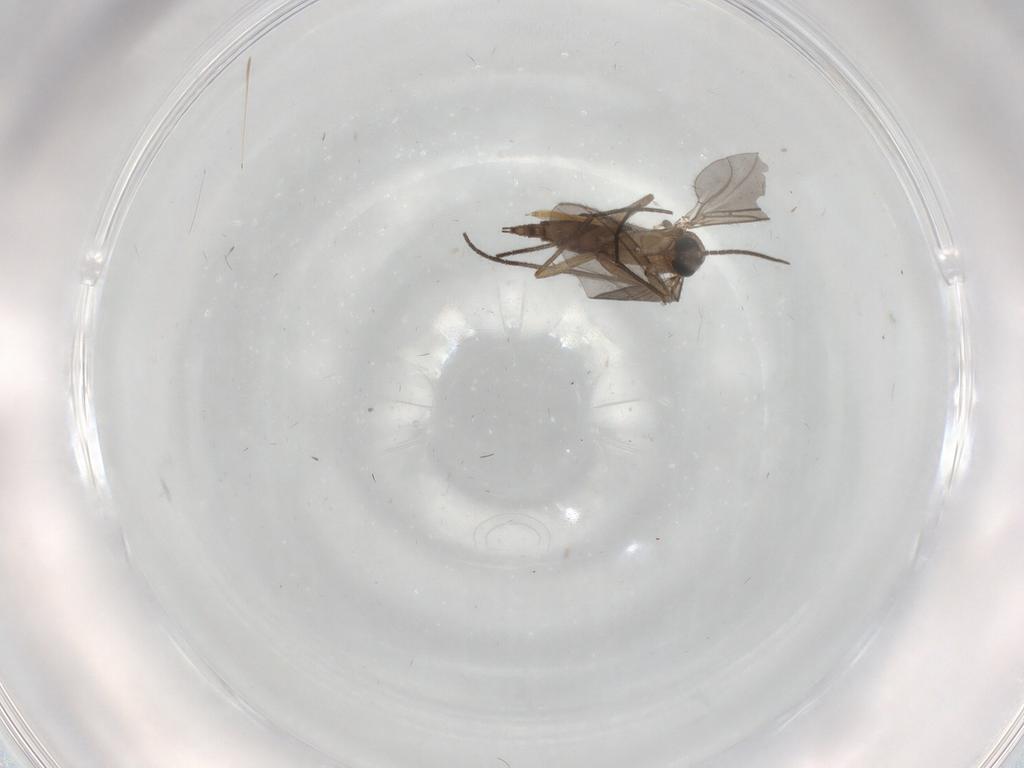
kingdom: Animalia
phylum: Arthropoda
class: Insecta
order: Diptera
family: Sciaridae
